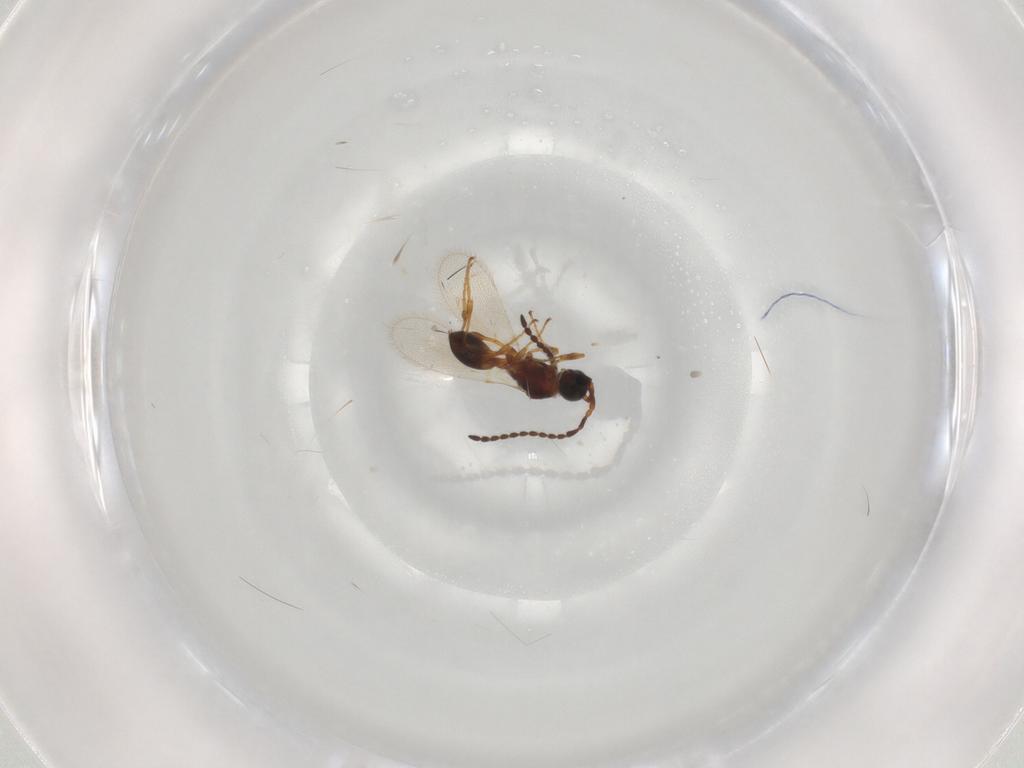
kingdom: Animalia
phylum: Arthropoda
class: Insecta
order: Hymenoptera
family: Diapriidae
